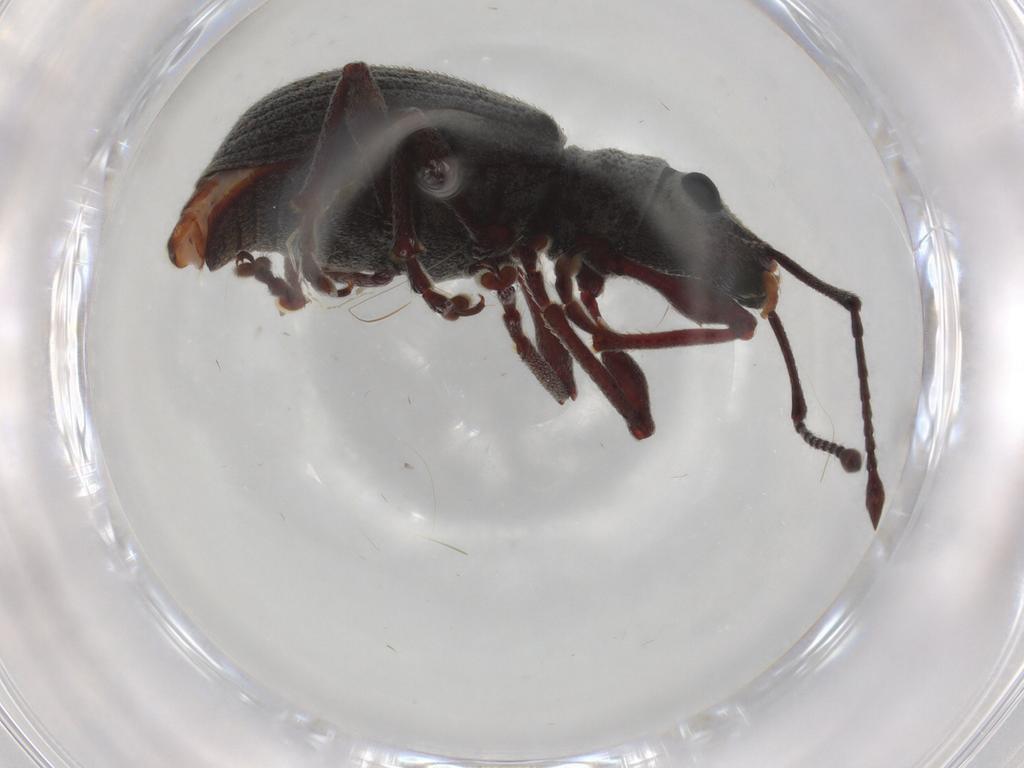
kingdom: Animalia
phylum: Arthropoda
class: Insecta
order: Coleoptera
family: Curculionidae
